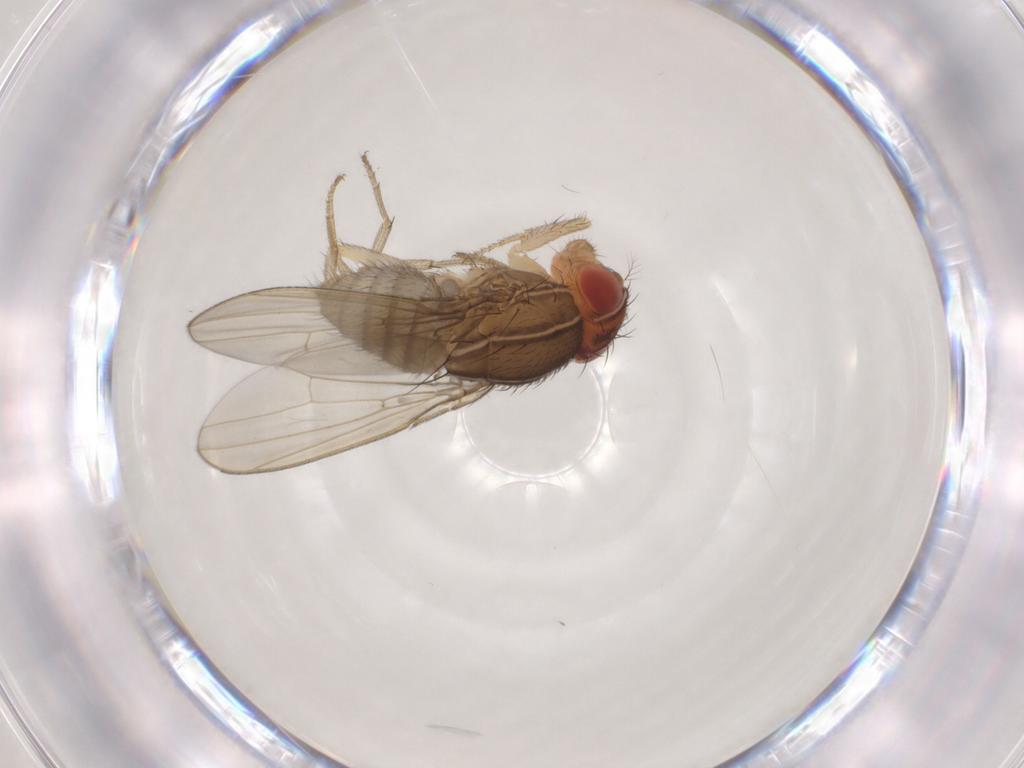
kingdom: Animalia
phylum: Arthropoda
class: Insecta
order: Diptera
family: Drosophilidae
